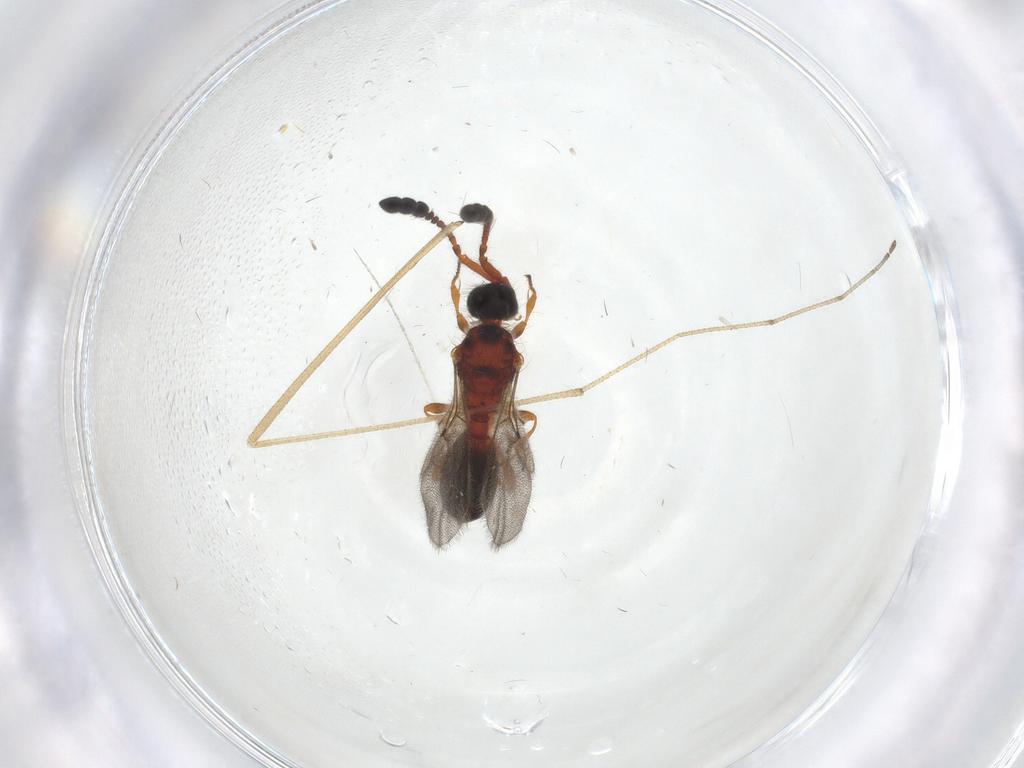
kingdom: Animalia
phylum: Arthropoda
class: Insecta
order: Hymenoptera
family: Diapriidae
